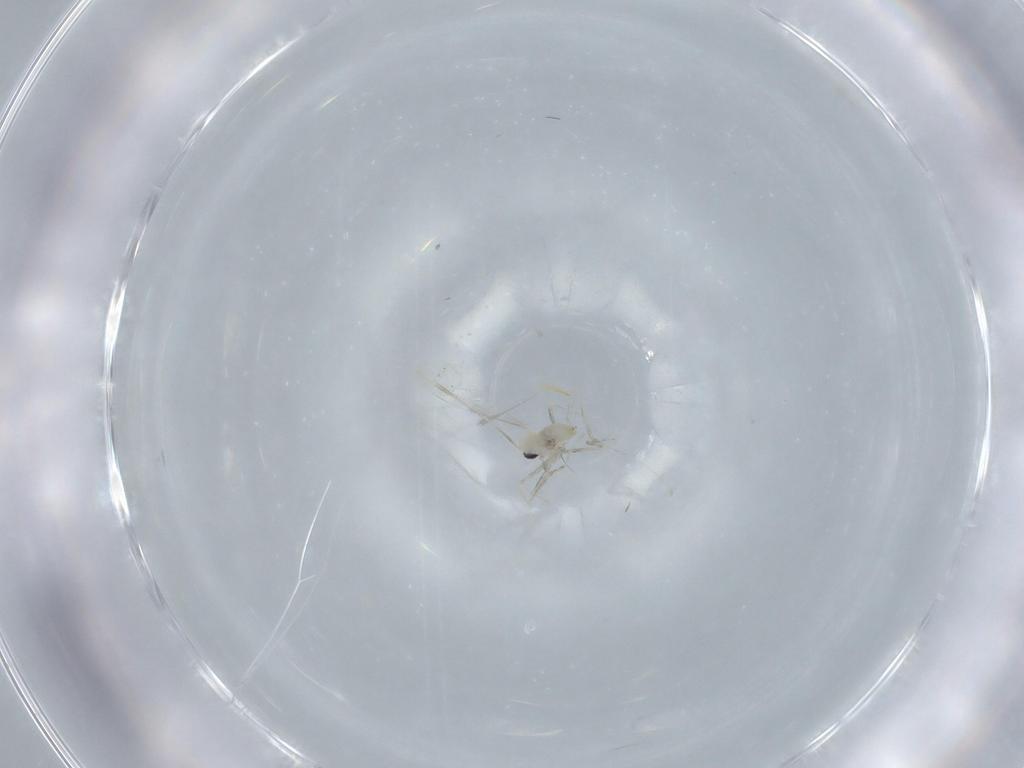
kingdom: Animalia
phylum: Arthropoda
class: Insecta
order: Diptera
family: Cecidomyiidae
